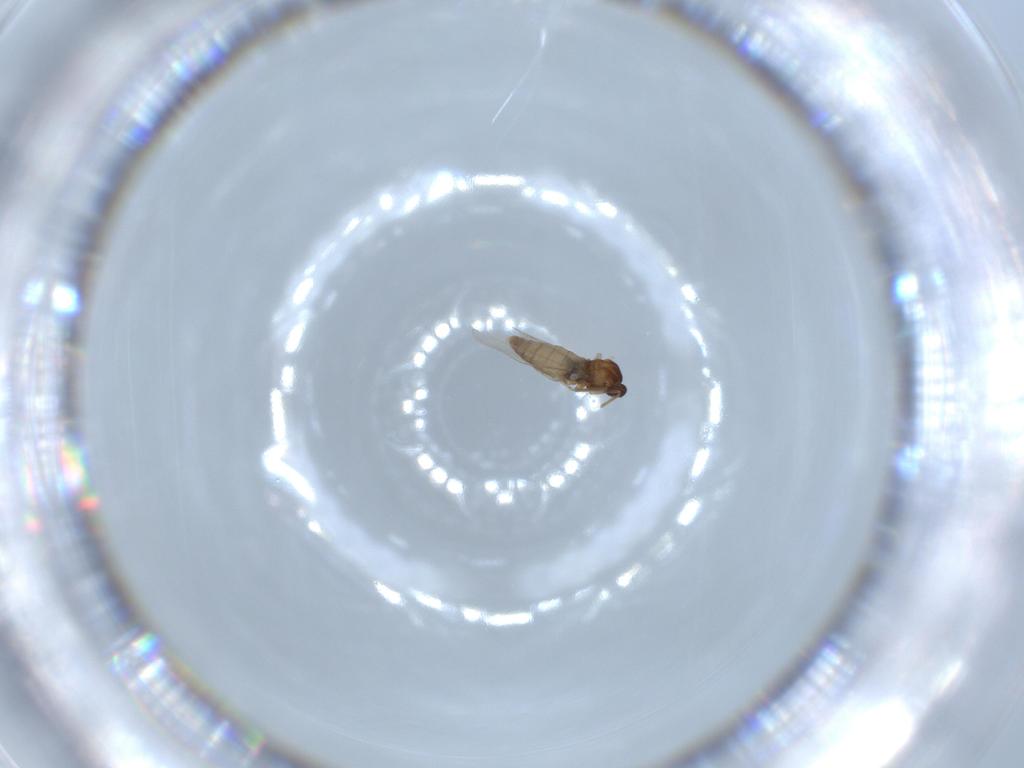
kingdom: Animalia
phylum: Arthropoda
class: Insecta
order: Diptera
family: Cecidomyiidae
